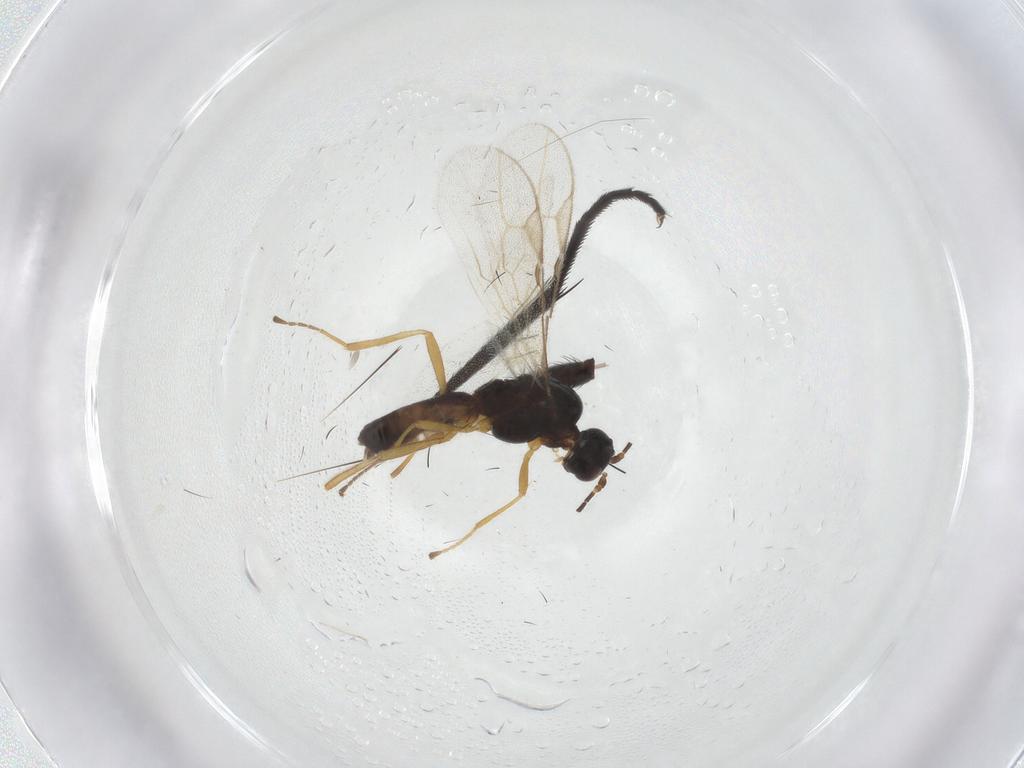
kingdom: Animalia
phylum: Arthropoda
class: Insecta
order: Hymenoptera
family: Braconidae
